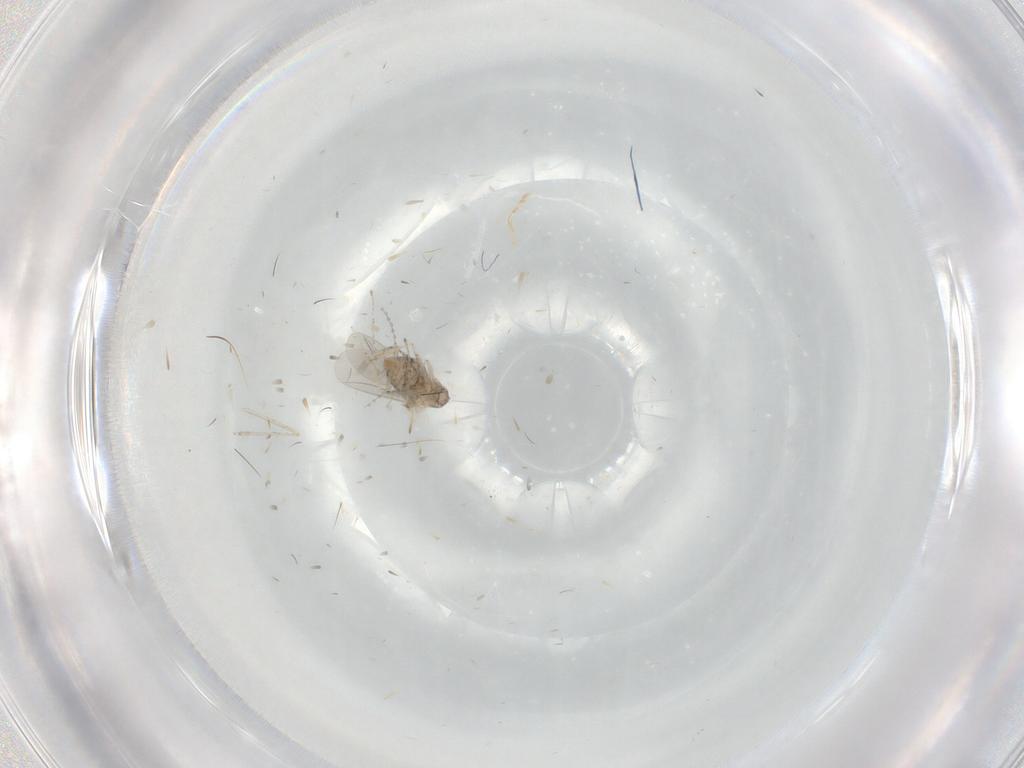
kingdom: Animalia
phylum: Arthropoda
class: Insecta
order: Diptera
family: Cecidomyiidae
